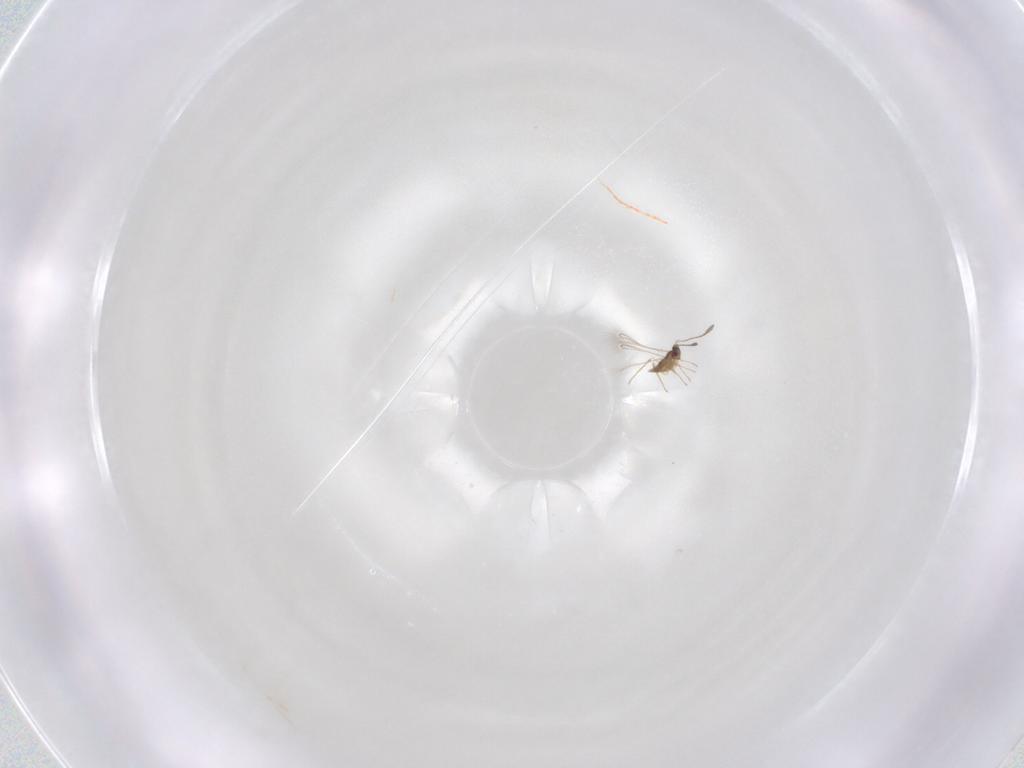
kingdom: Animalia
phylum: Arthropoda
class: Insecta
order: Hymenoptera
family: Mymaridae
